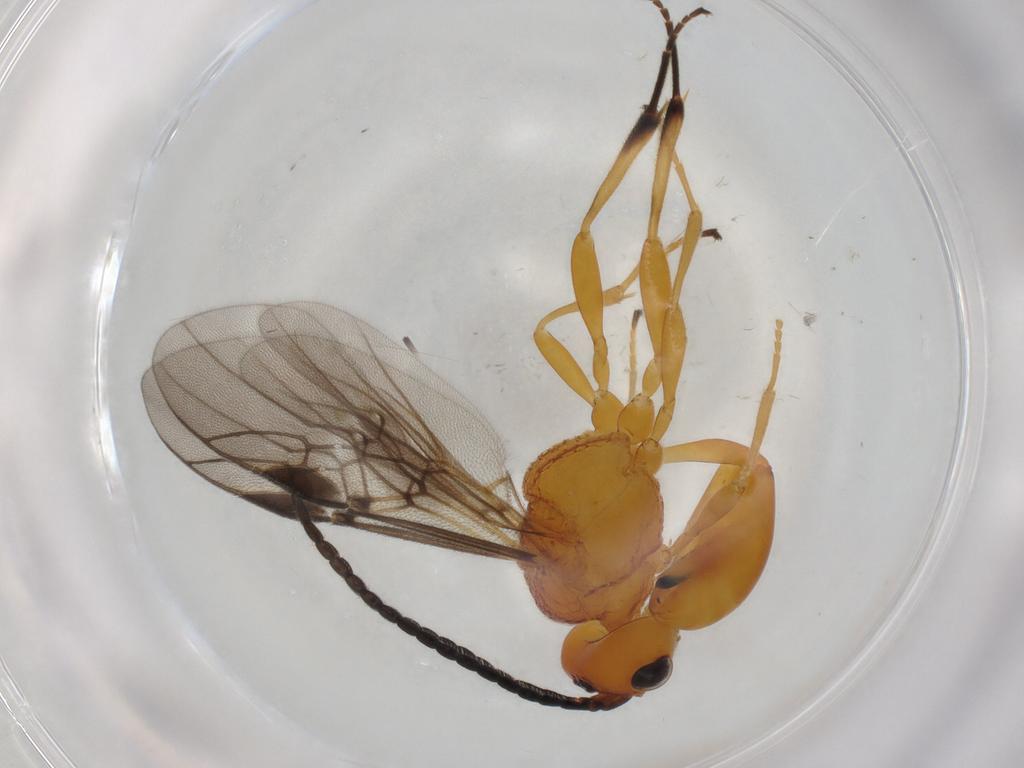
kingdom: Animalia
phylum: Arthropoda
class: Insecta
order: Hymenoptera
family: Braconidae
